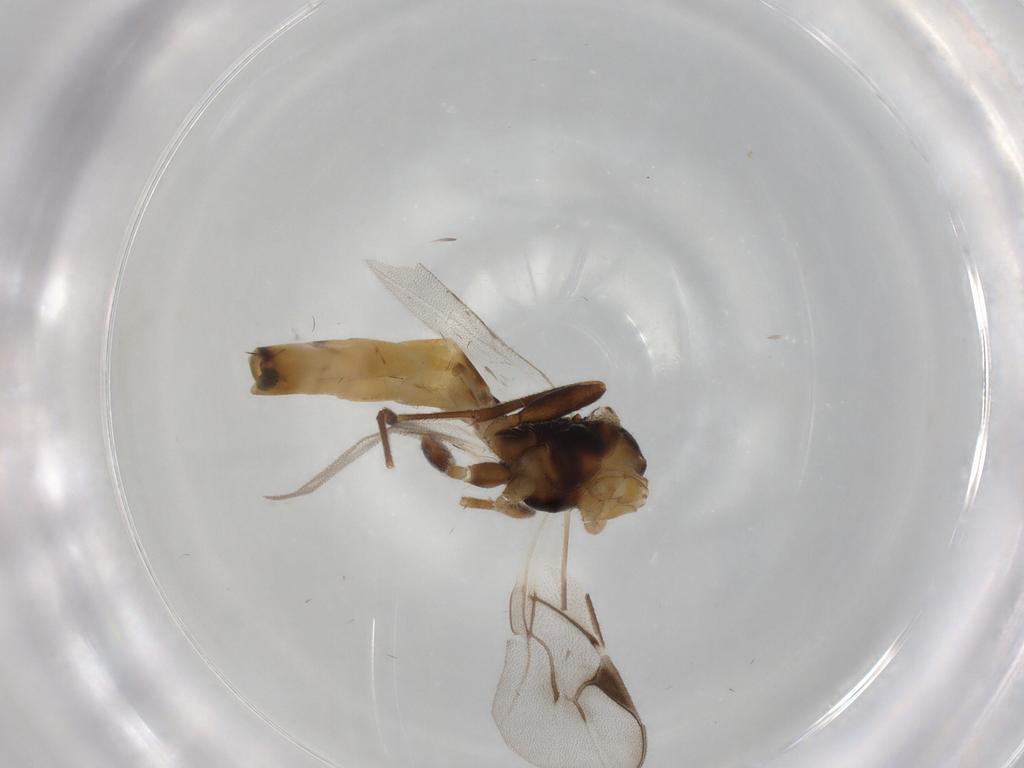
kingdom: Animalia
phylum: Arthropoda
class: Insecta
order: Hymenoptera
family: Braconidae
